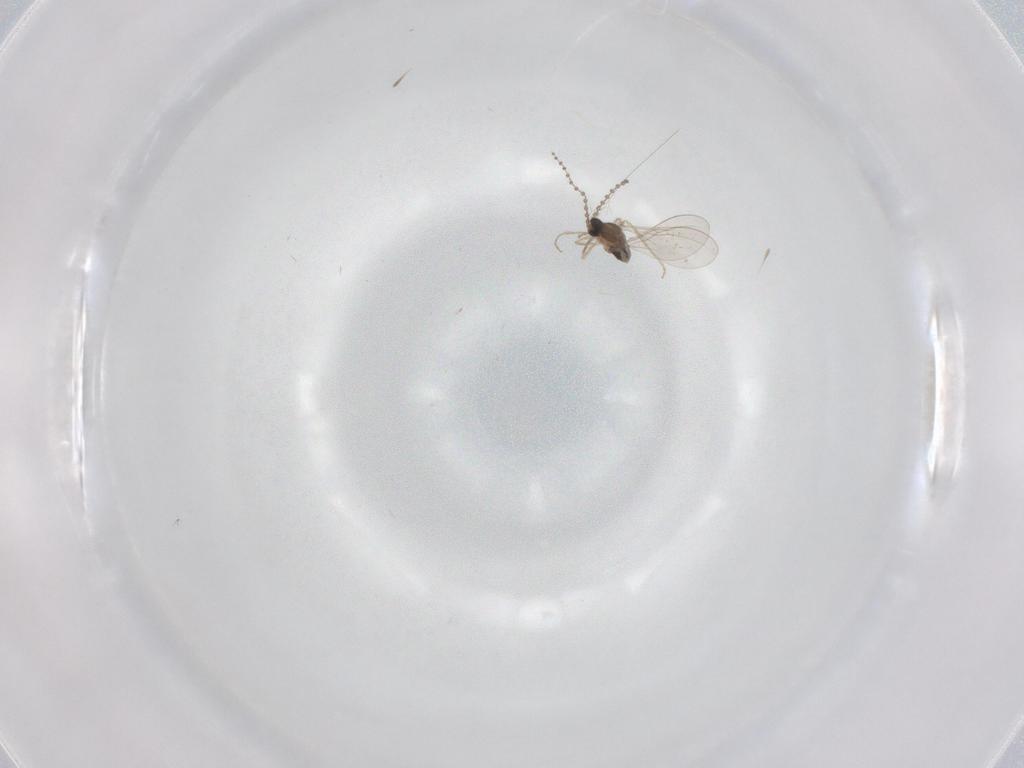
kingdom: Animalia
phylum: Arthropoda
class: Insecta
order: Diptera
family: Cecidomyiidae
